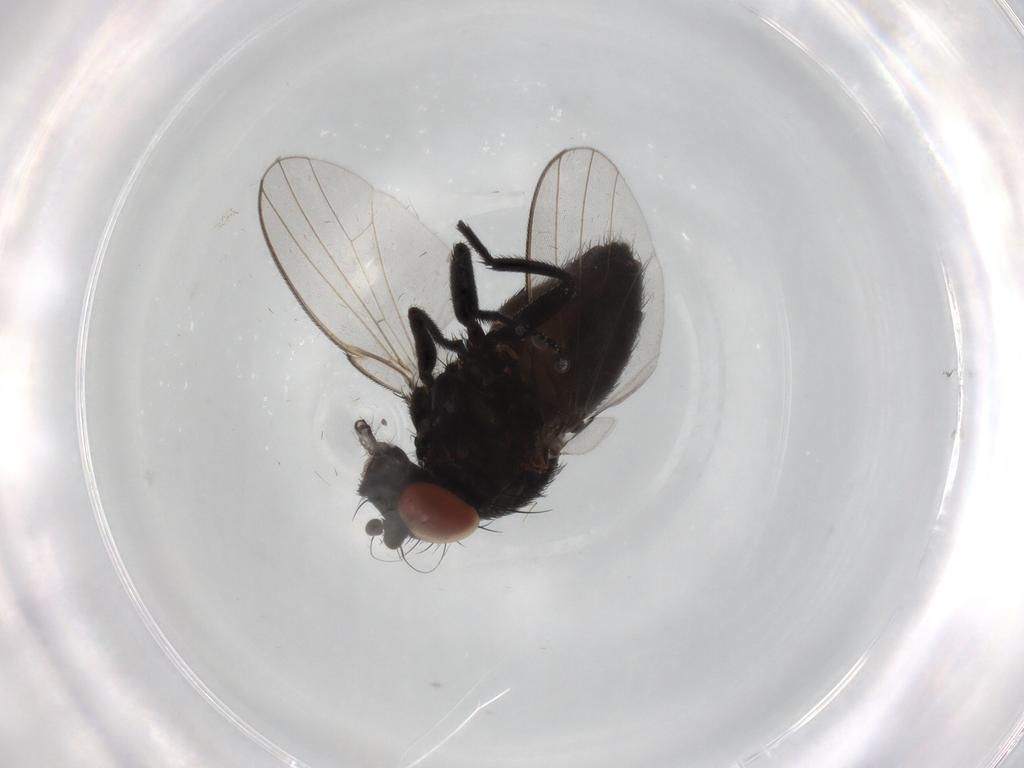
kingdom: Animalia
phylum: Arthropoda
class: Insecta
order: Diptera
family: Milichiidae
